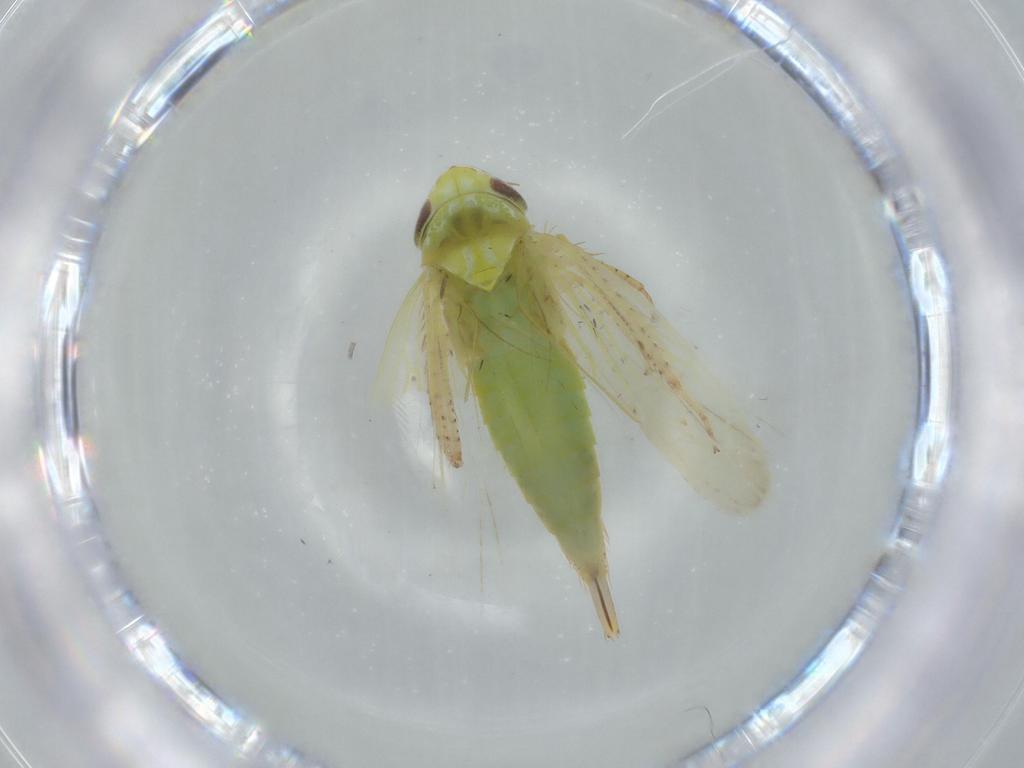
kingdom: Animalia
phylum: Arthropoda
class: Insecta
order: Hemiptera
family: Cicadellidae
